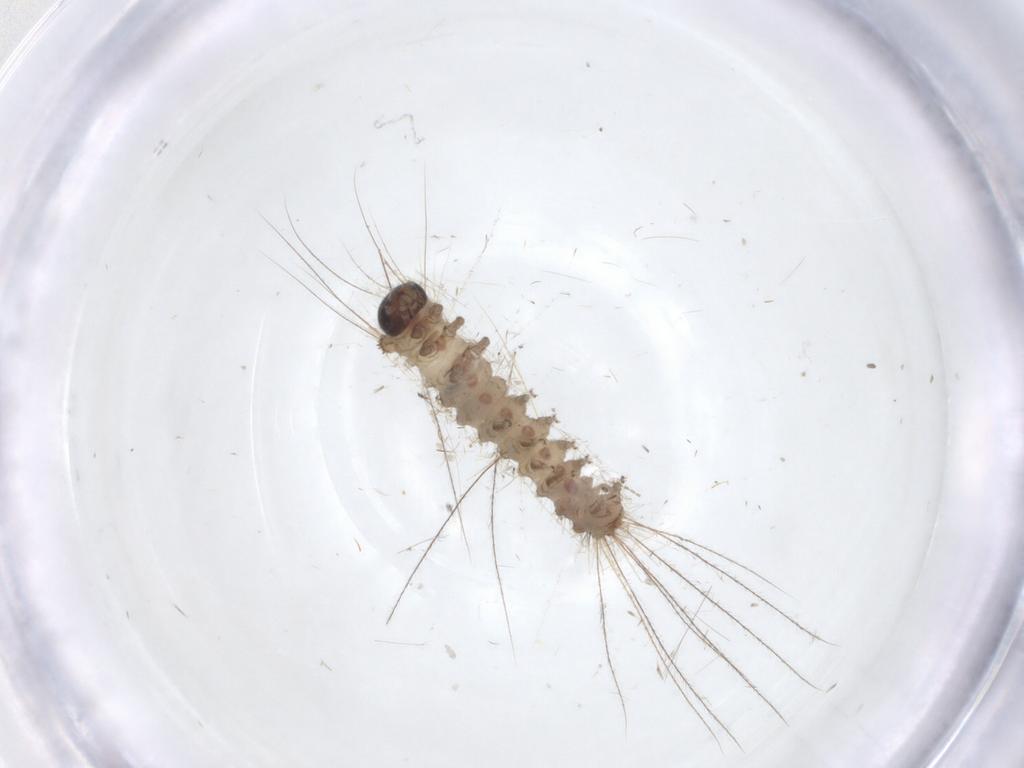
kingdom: Animalia
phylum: Arthropoda
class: Insecta
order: Lepidoptera
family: Erebidae
